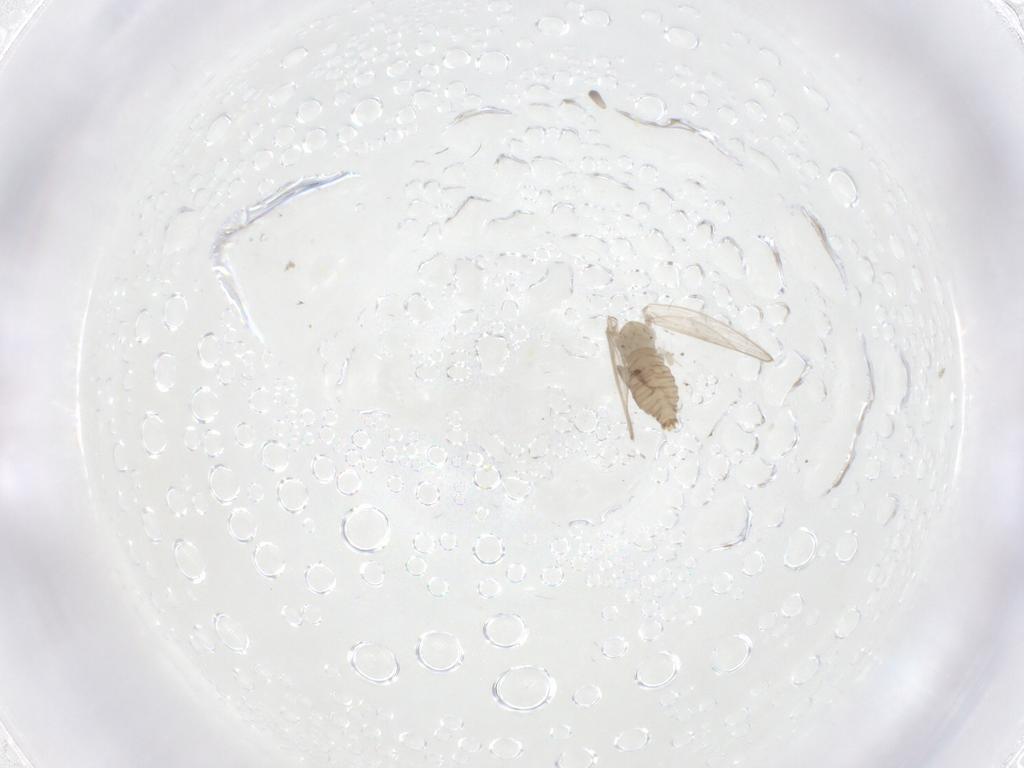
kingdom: Animalia
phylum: Arthropoda
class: Insecta
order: Diptera
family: Psychodidae
